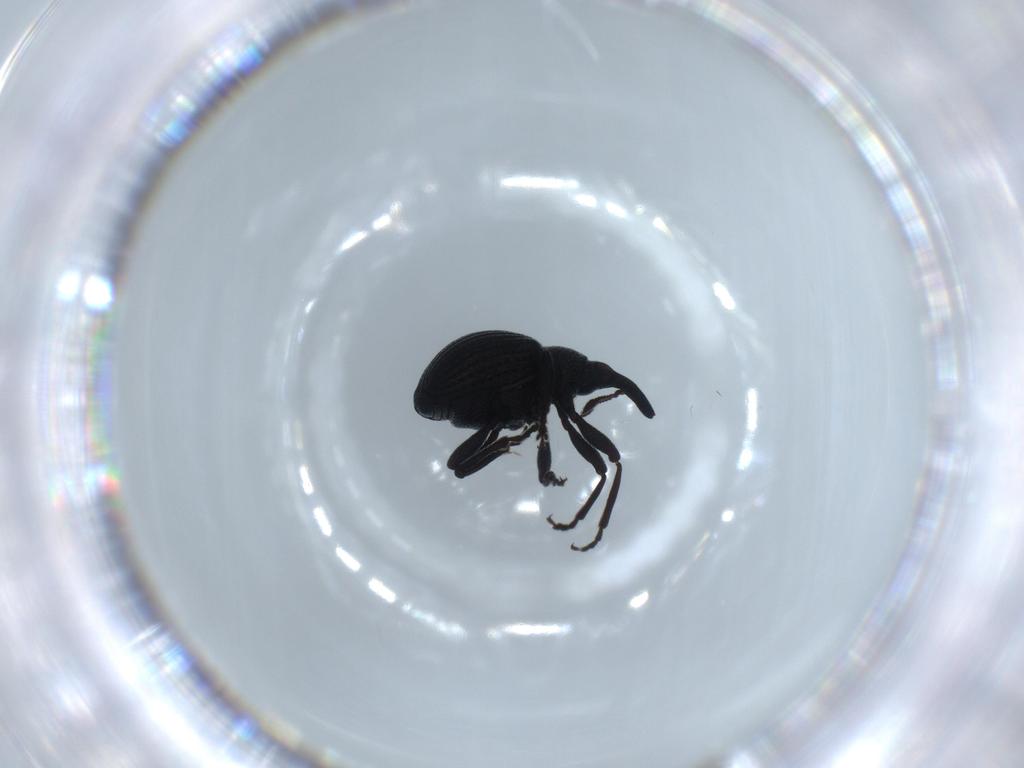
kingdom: Animalia
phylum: Arthropoda
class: Insecta
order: Coleoptera
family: Brentidae
